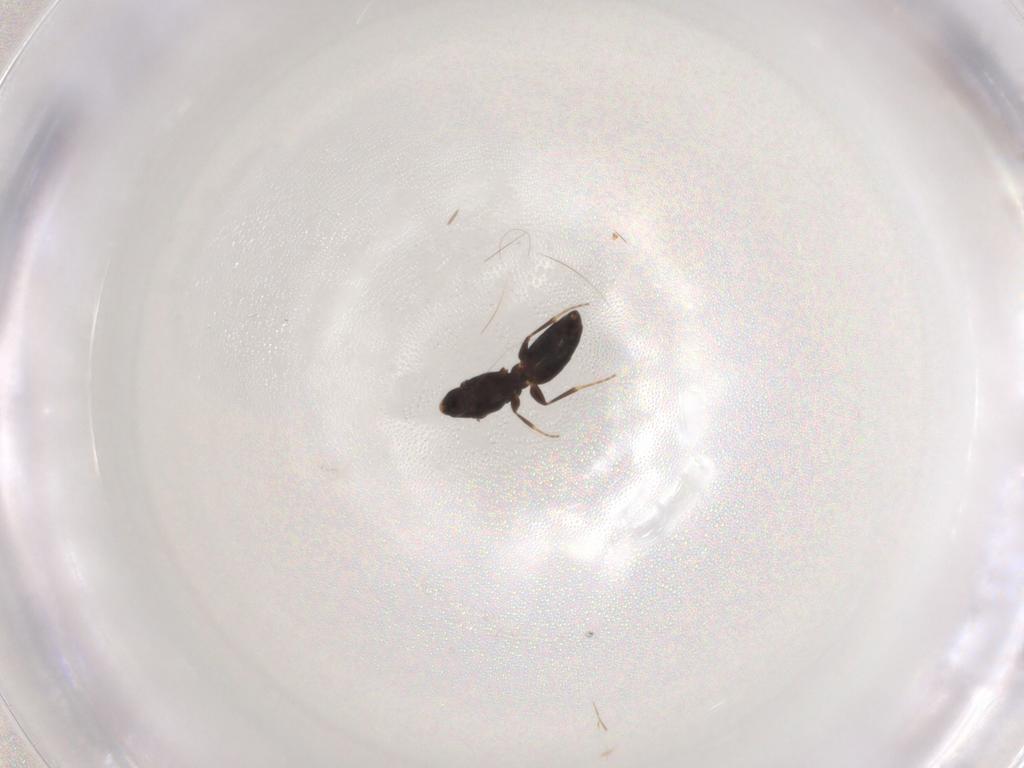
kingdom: Animalia
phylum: Arthropoda
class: Insecta
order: Hymenoptera
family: Bethylidae
